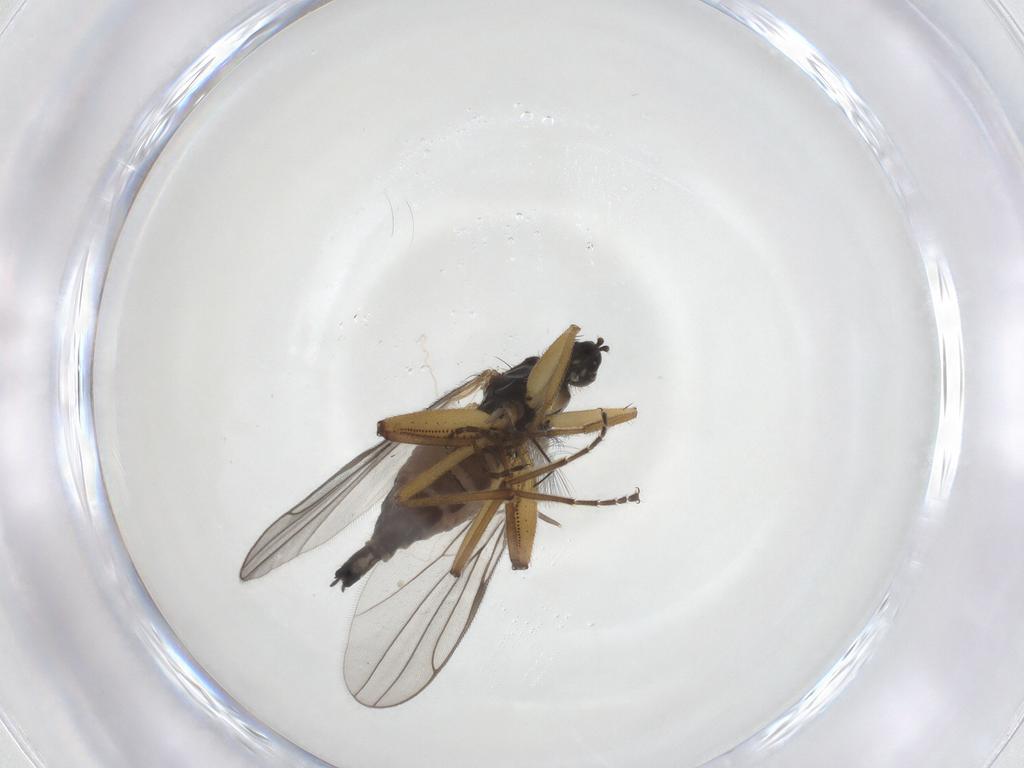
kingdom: Animalia
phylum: Arthropoda
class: Insecta
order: Diptera
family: Hybotidae
